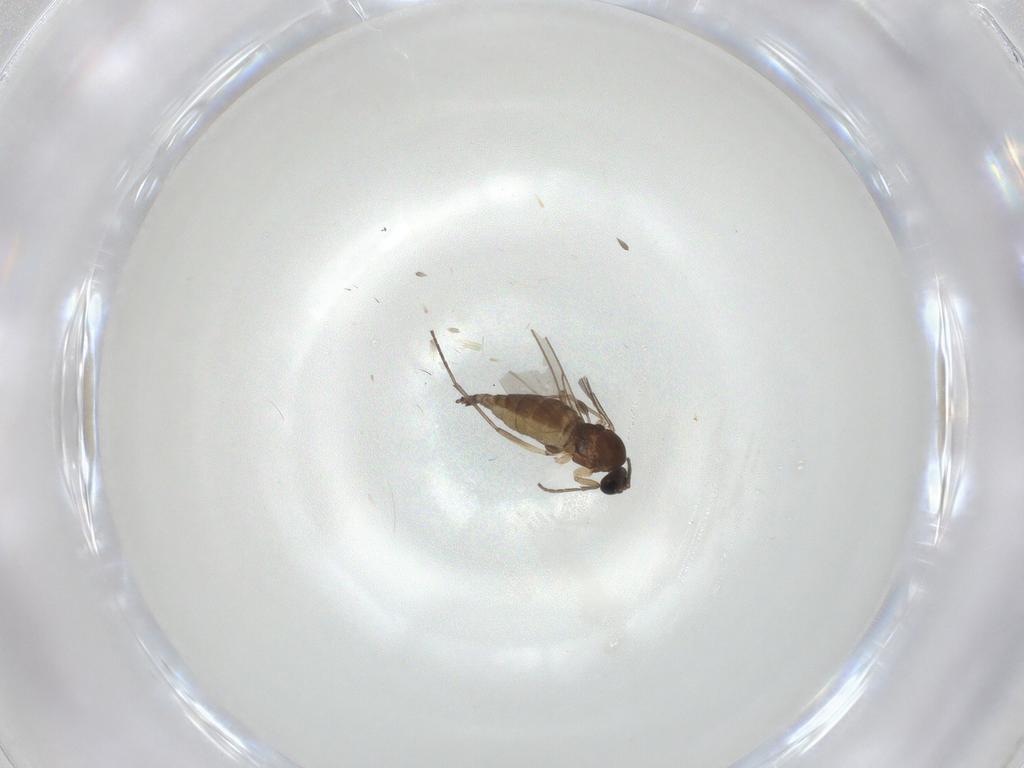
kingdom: Animalia
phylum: Arthropoda
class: Insecta
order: Diptera
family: Sciaridae
